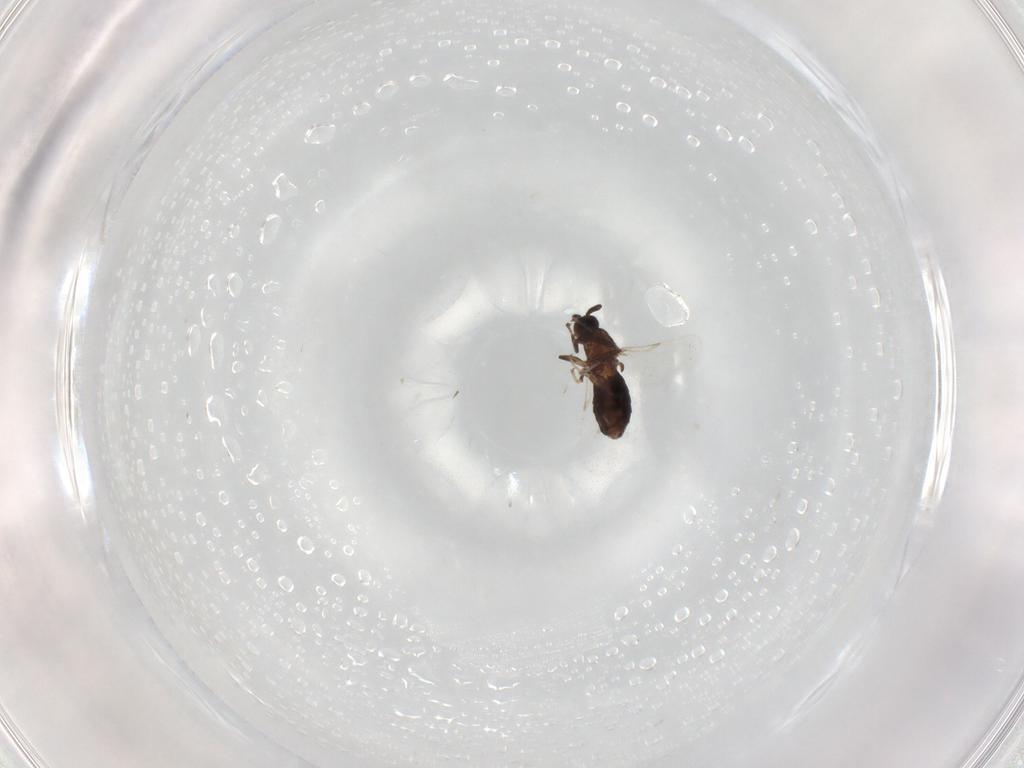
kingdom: Animalia
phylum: Arthropoda
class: Insecta
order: Diptera
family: Scatopsidae
